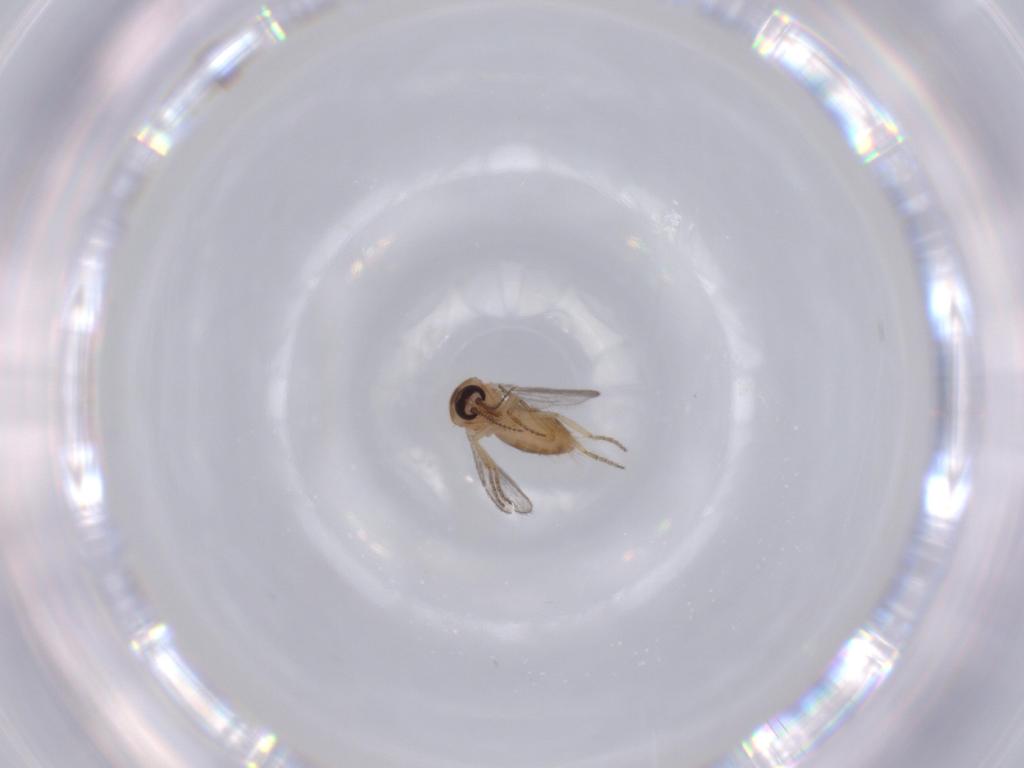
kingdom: Animalia
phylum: Arthropoda
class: Insecta
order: Diptera
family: Ceratopogonidae
